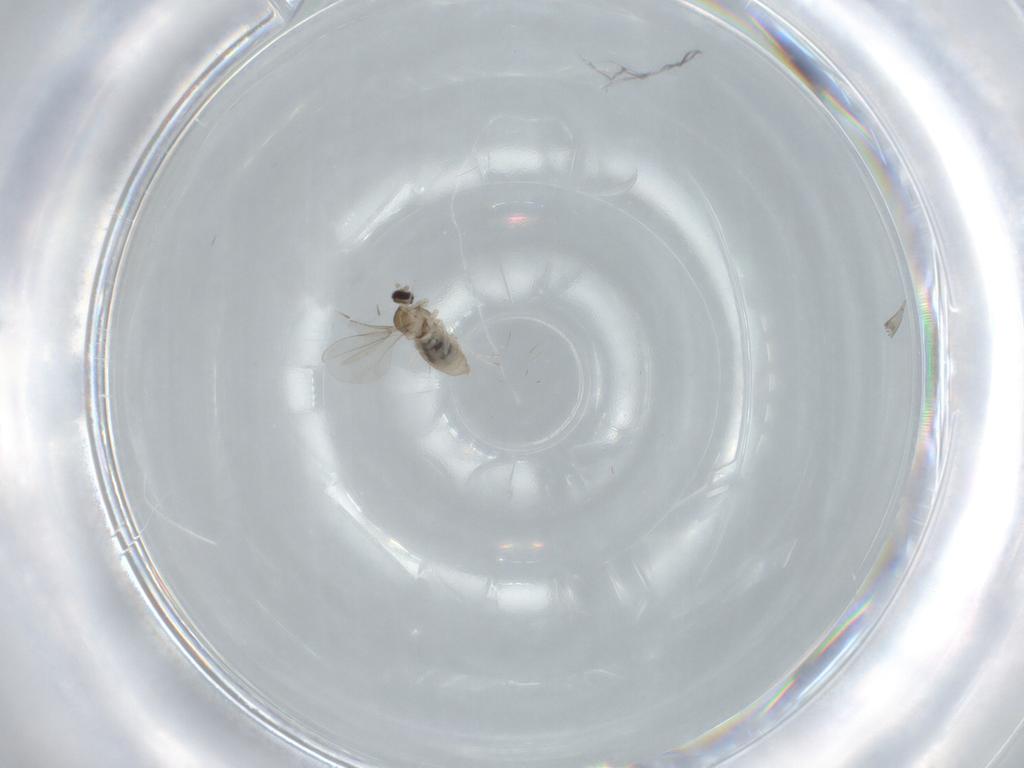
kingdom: Animalia
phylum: Arthropoda
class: Insecta
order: Diptera
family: Cecidomyiidae
